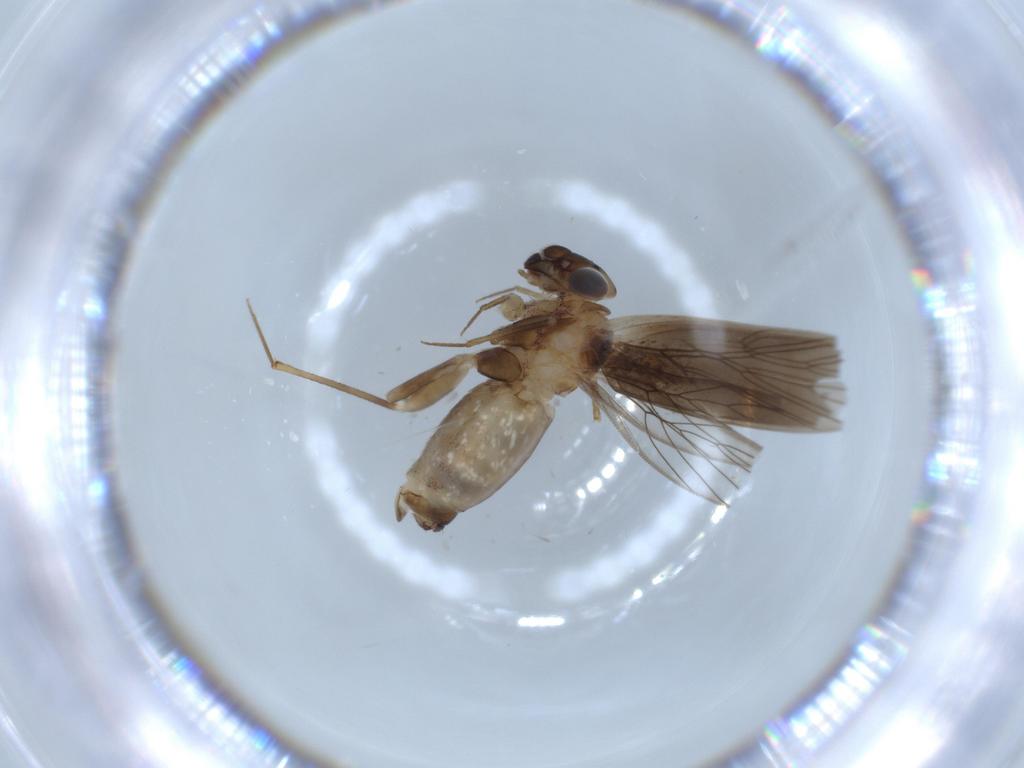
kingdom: Animalia
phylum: Arthropoda
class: Insecta
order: Psocodea
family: Lepidopsocidae
